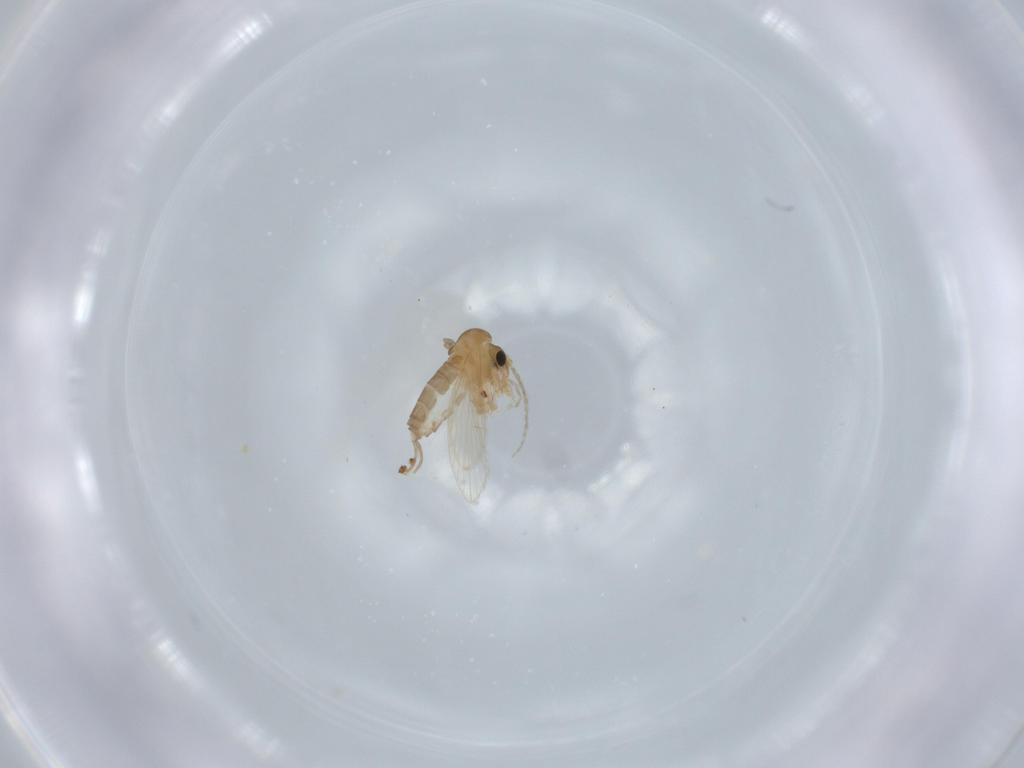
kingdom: Animalia
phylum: Arthropoda
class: Insecta
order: Diptera
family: Psychodidae
